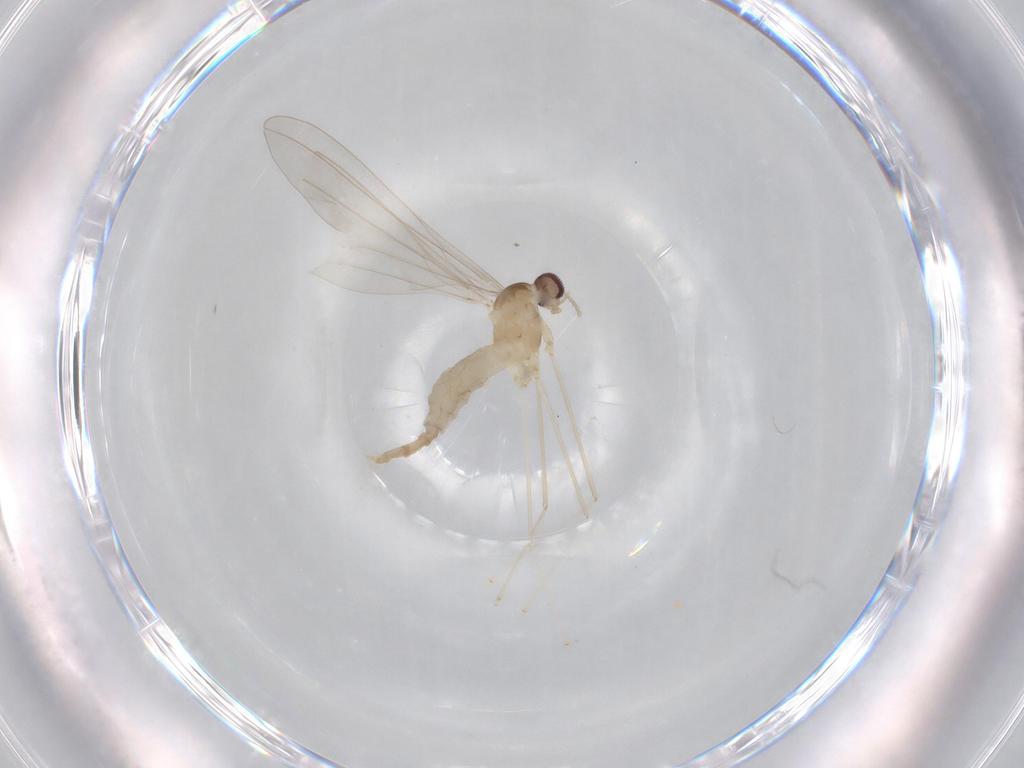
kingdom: Animalia
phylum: Arthropoda
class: Insecta
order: Diptera
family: Cecidomyiidae
